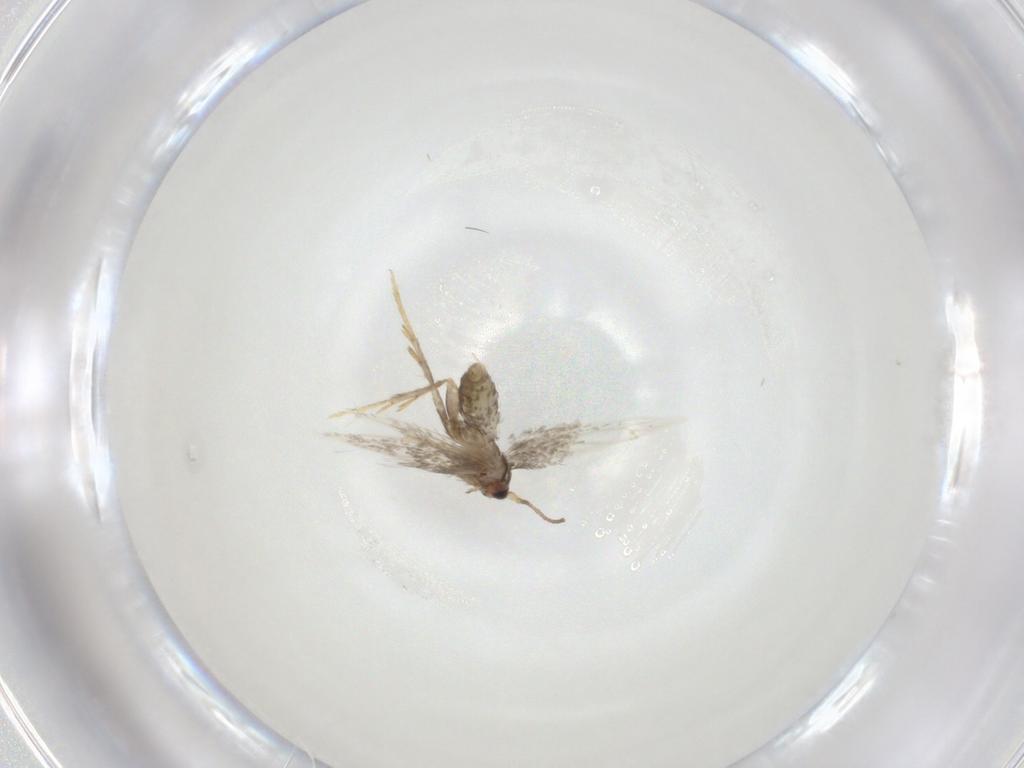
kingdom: Animalia
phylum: Arthropoda
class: Insecta
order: Lepidoptera
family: Nepticulidae
